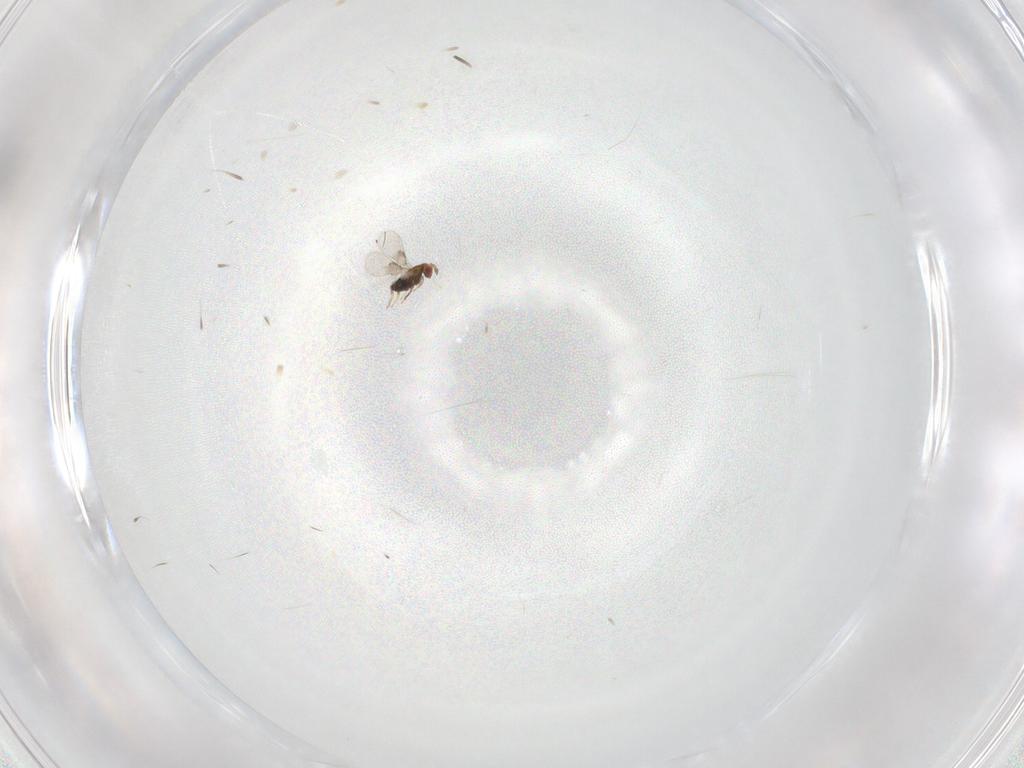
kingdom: Animalia
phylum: Arthropoda
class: Insecta
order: Hymenoptera
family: Trichogrammatidae
